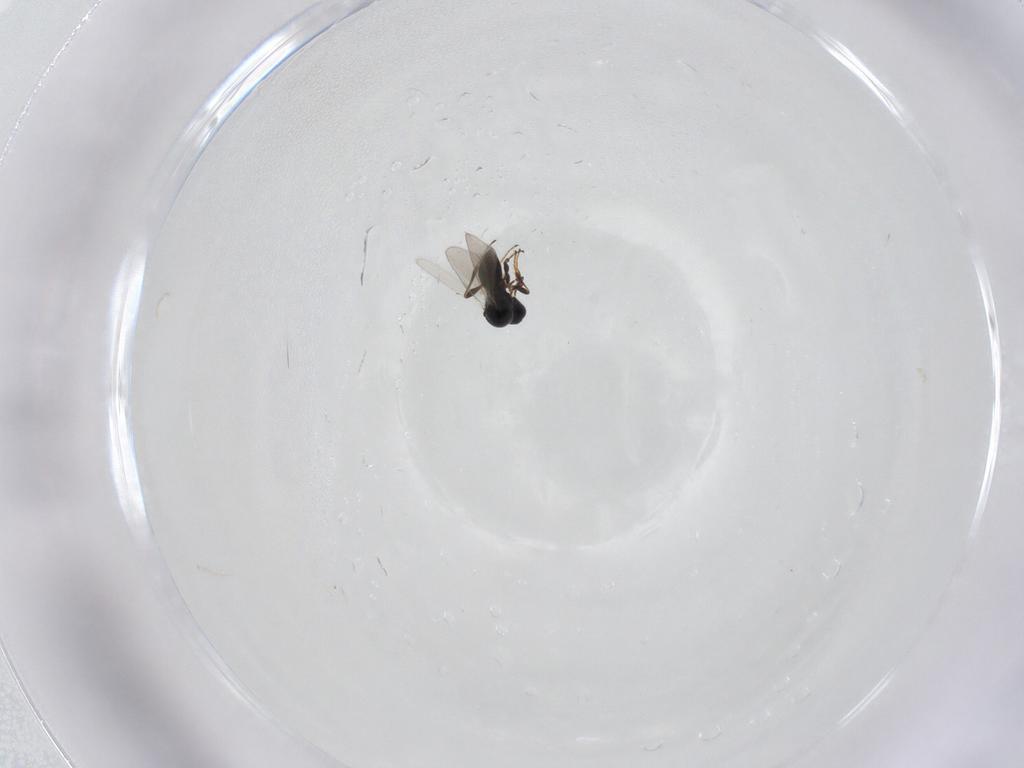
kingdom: Animalia
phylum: Arthropoda
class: Insecta
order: Hymenoptera
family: Platygastridae
